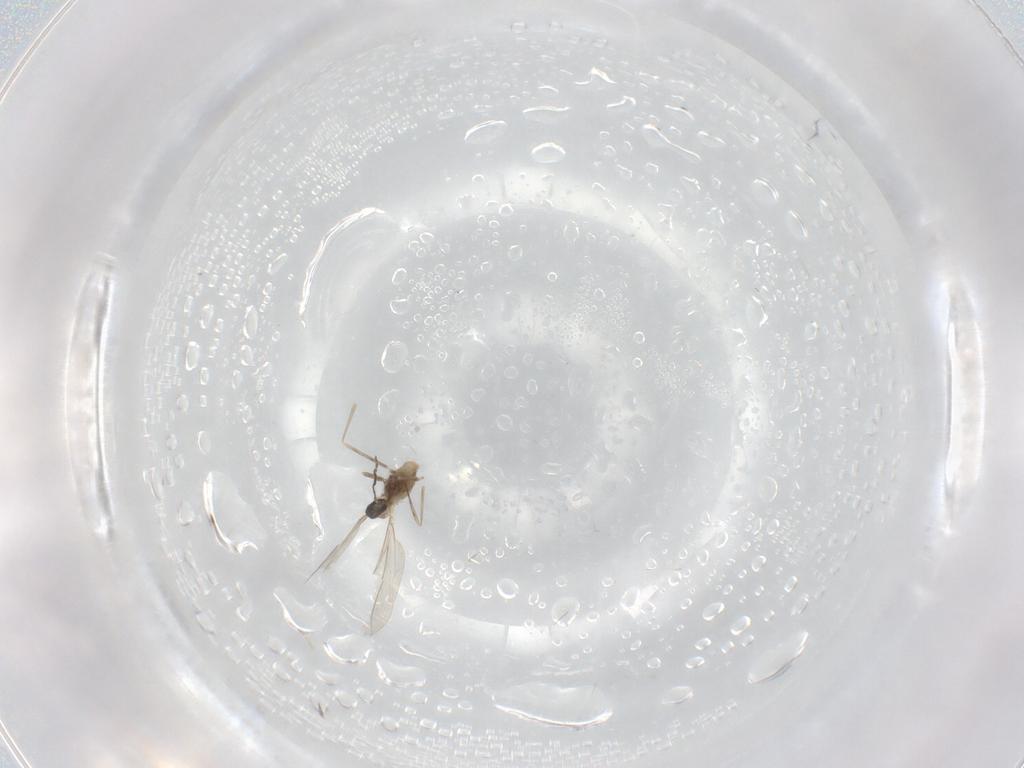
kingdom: Animalia
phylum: Arthropoda
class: Insecta
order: Diptera
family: Cecidomyiidae
